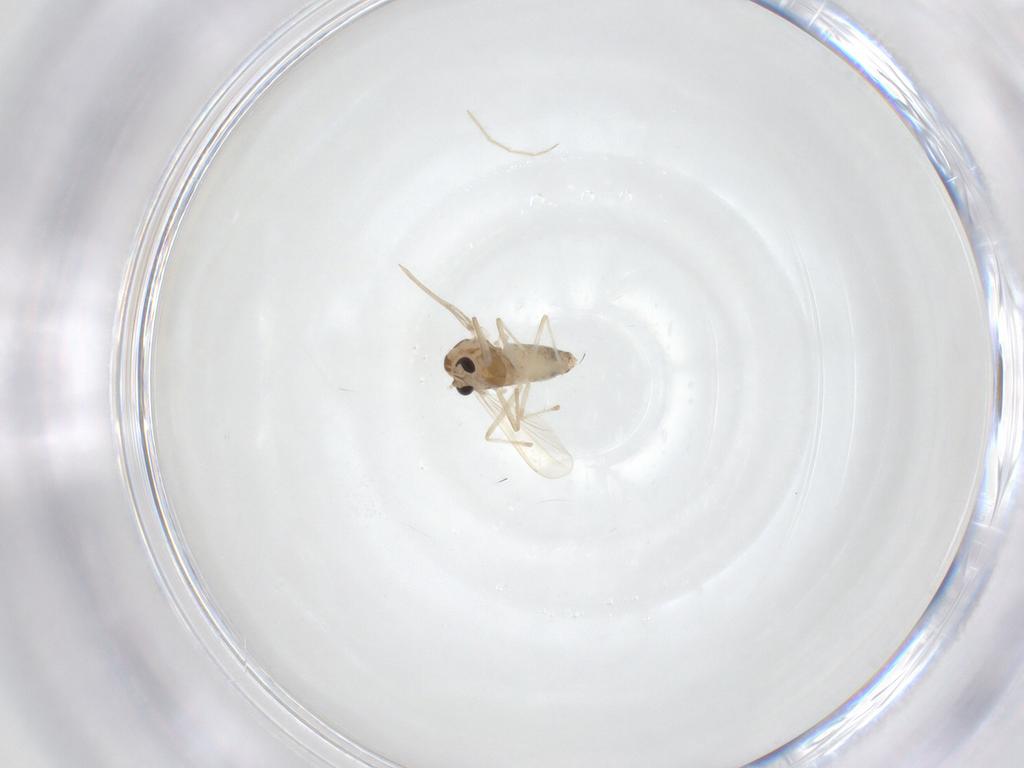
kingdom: Animalia
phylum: Arthropoda
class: Insecta
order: Diptera
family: Chironomidae
